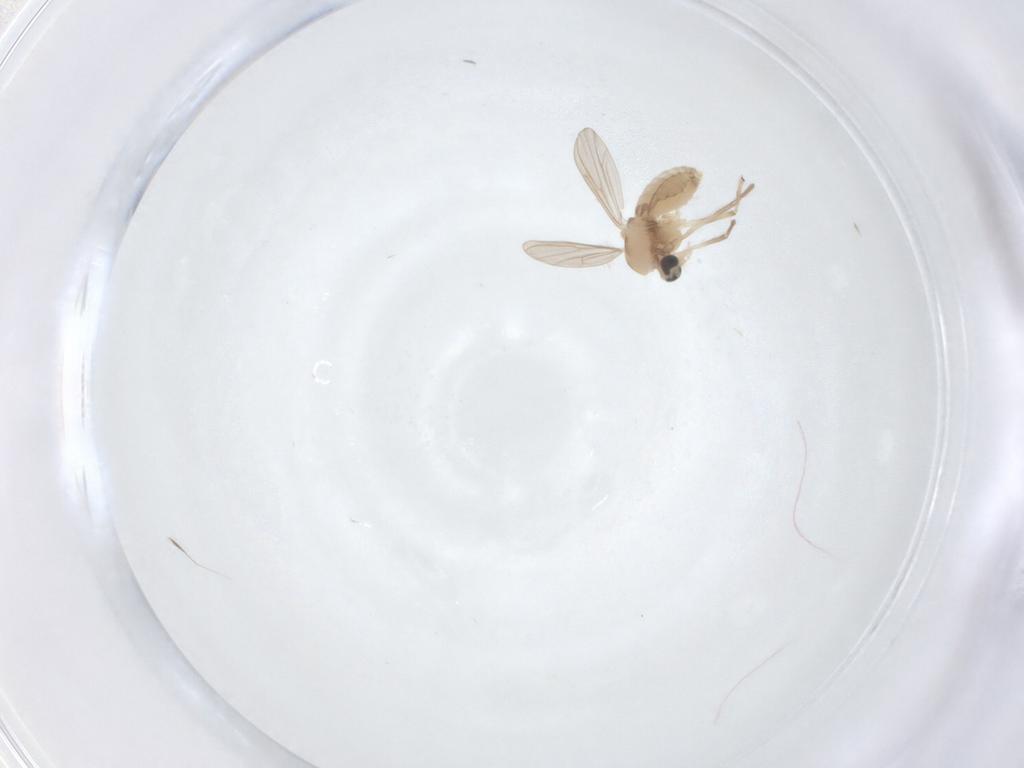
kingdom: Animalia
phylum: Arthropoda
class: Insecta
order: Diptera
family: Chironomidae
